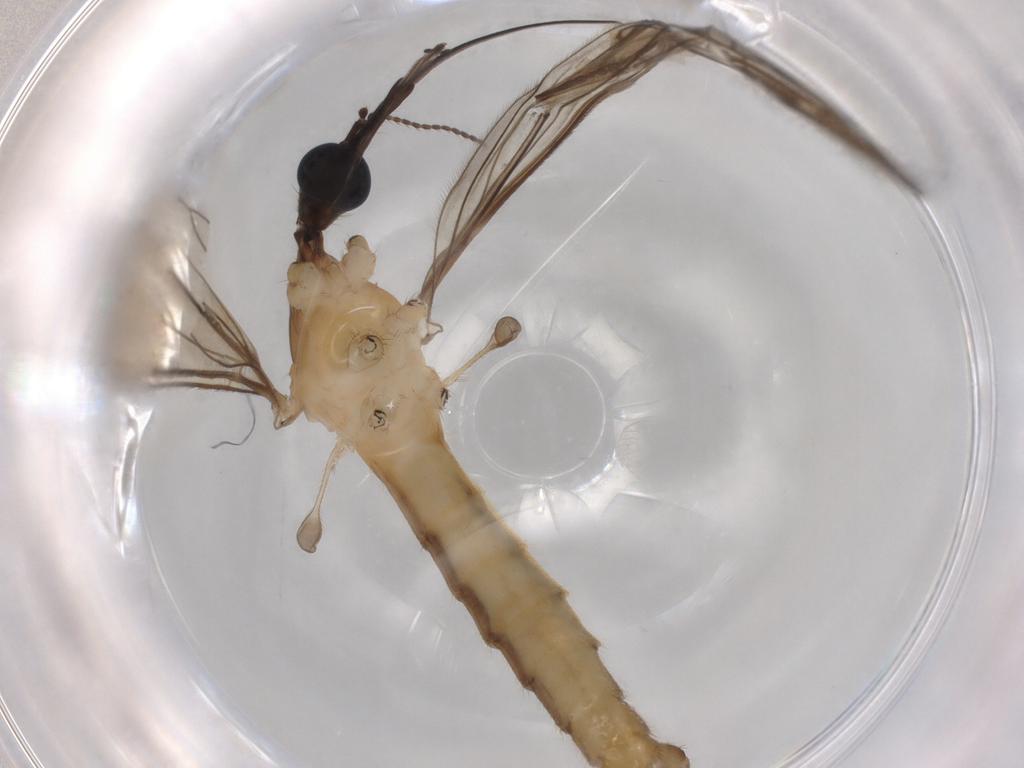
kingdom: Animalia
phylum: Arthropoda
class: Insecta
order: Diptera
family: Limoniidae
